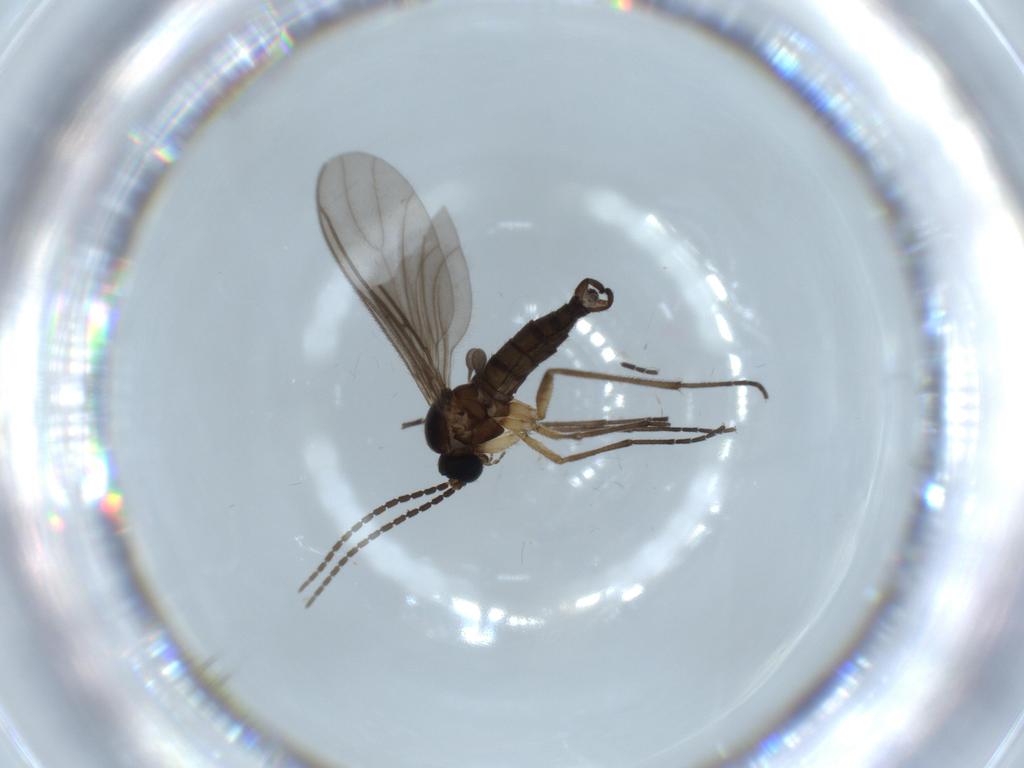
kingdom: Animalia
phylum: Arthropoda
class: Insecta
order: Diptera
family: Sciaridae
